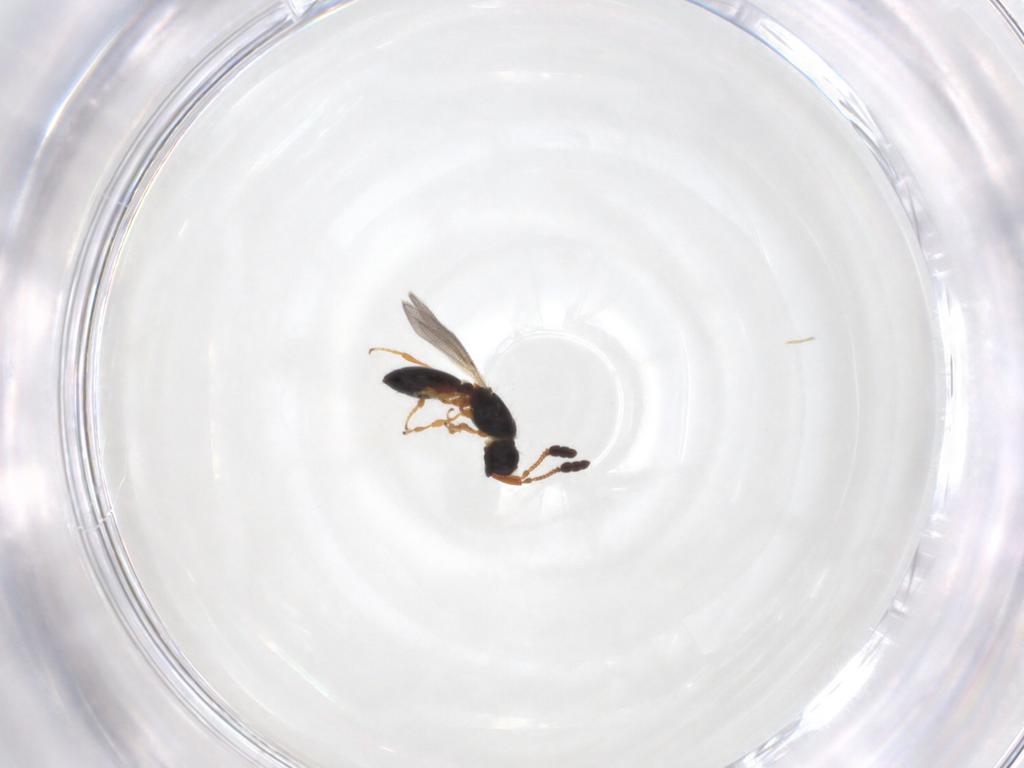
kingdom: Animalia
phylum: Arthropoda
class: Insecta
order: Hymenoptera
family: Diapriidae
